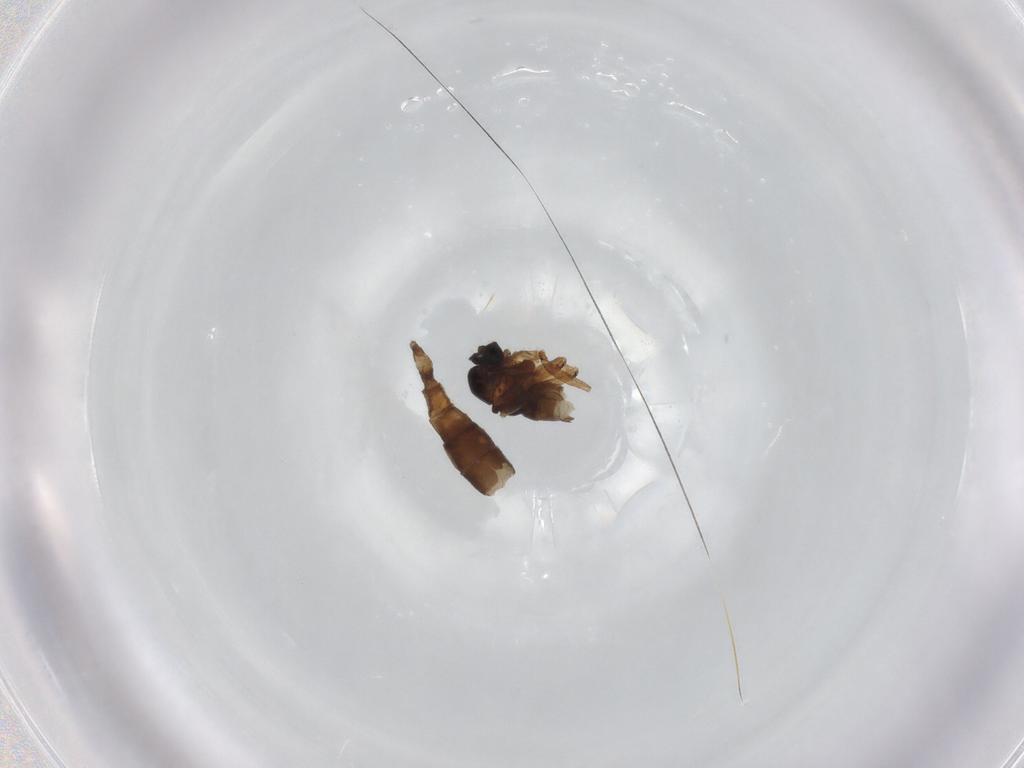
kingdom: Animalia
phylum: Arthropoda
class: Insecta
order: Diptera
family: Sciaridae
